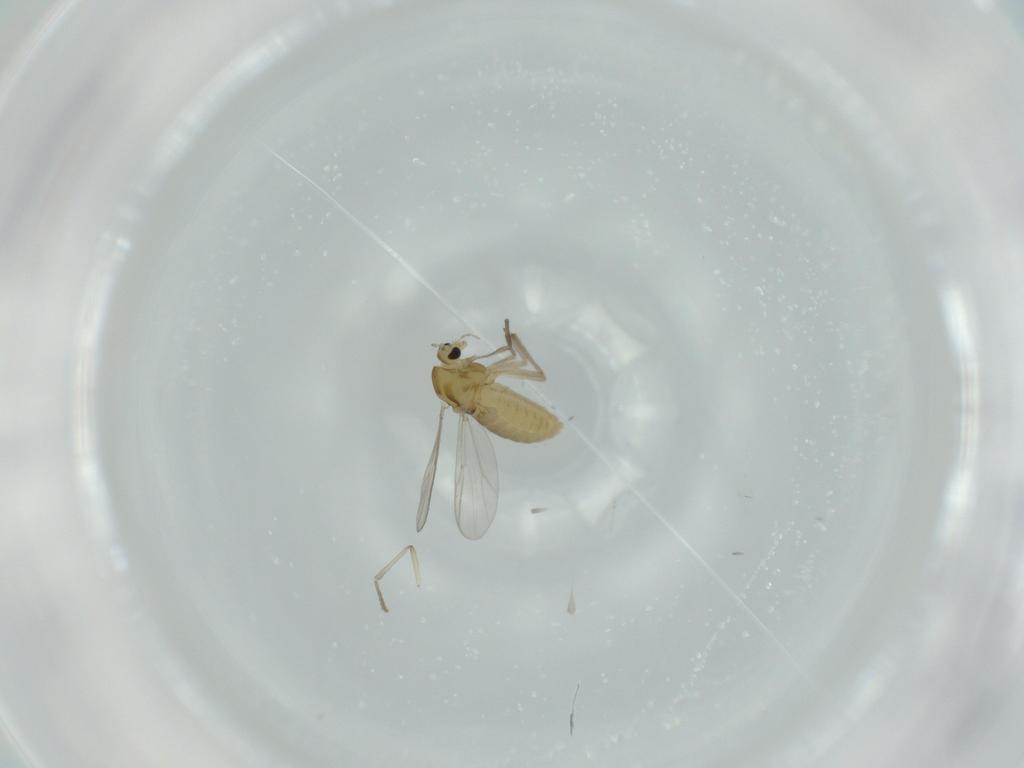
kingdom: Animalia
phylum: Arthropoda
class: Insecta
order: Diptera
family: Chironomidae
